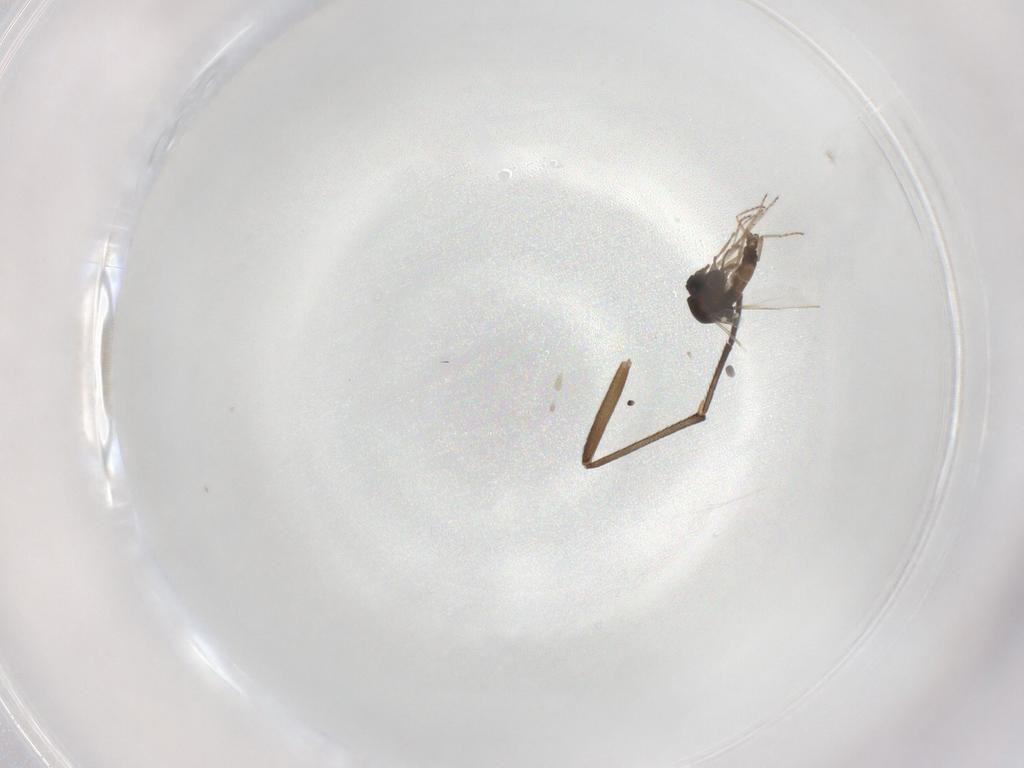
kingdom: Animalia
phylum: Arthropoda
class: Insecta
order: Diptera
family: Ceratopogonidae
